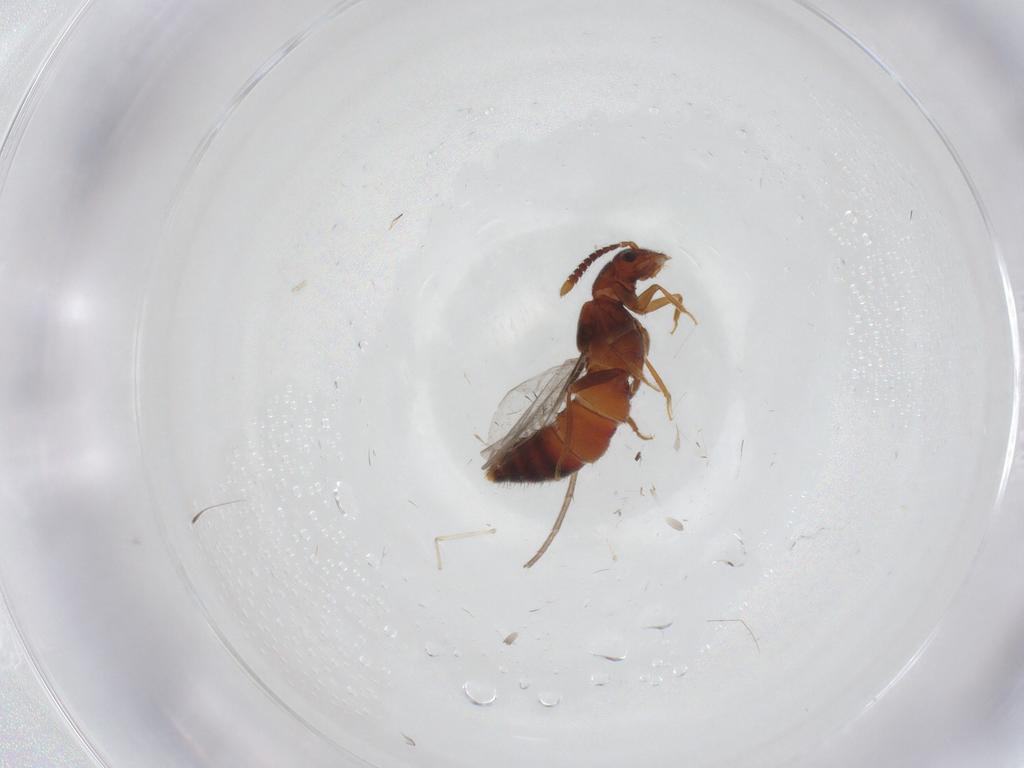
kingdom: Animalia
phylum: Arthropoda
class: Insecta
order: Coleoptera
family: Staphylinidae
